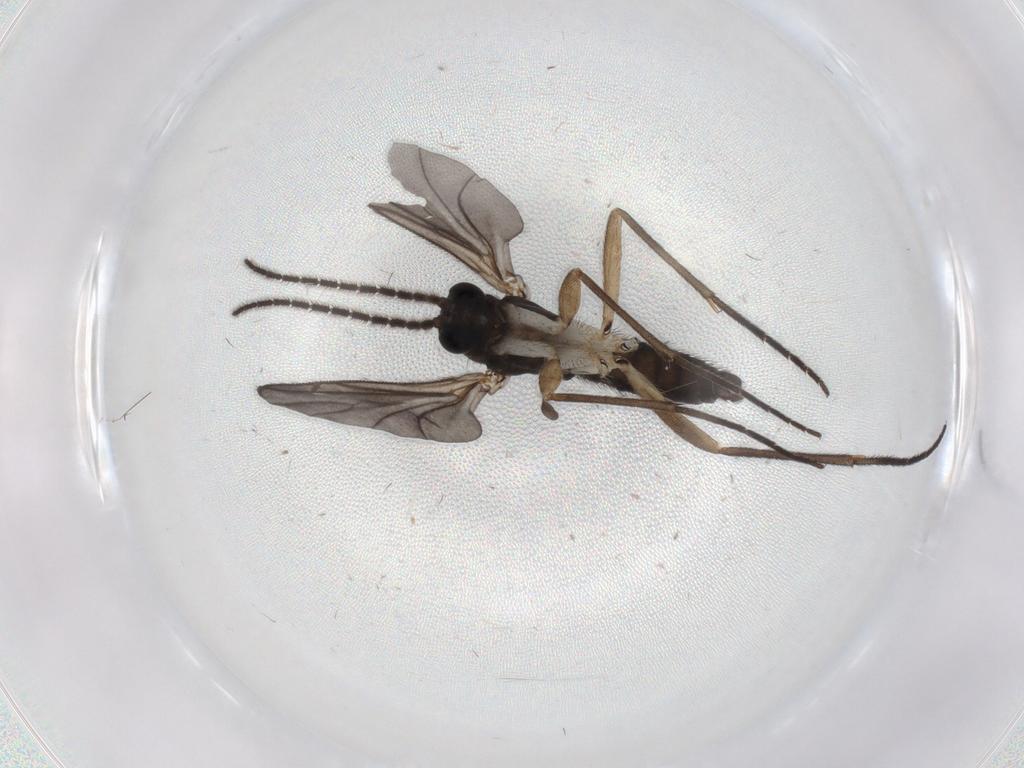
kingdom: Animalia
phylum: Arthropoda
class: Insecta
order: Diptera
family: Sciaridae
